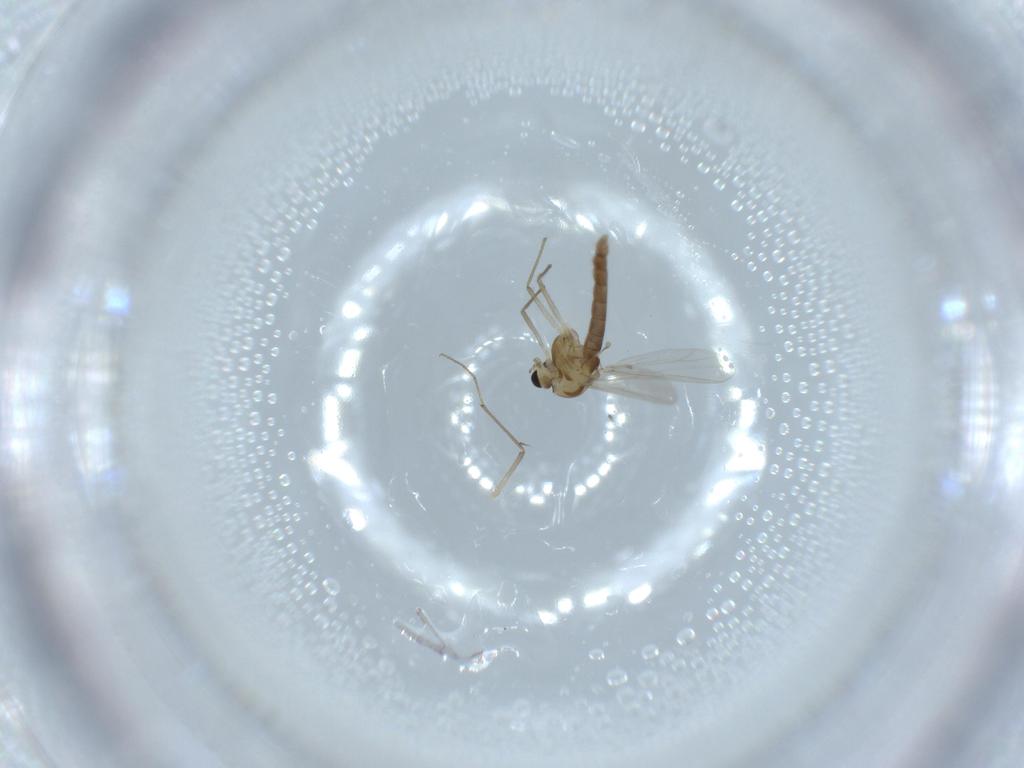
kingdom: Animalia
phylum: Arthropoda
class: Insecta
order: Diptera
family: Chironomidae
